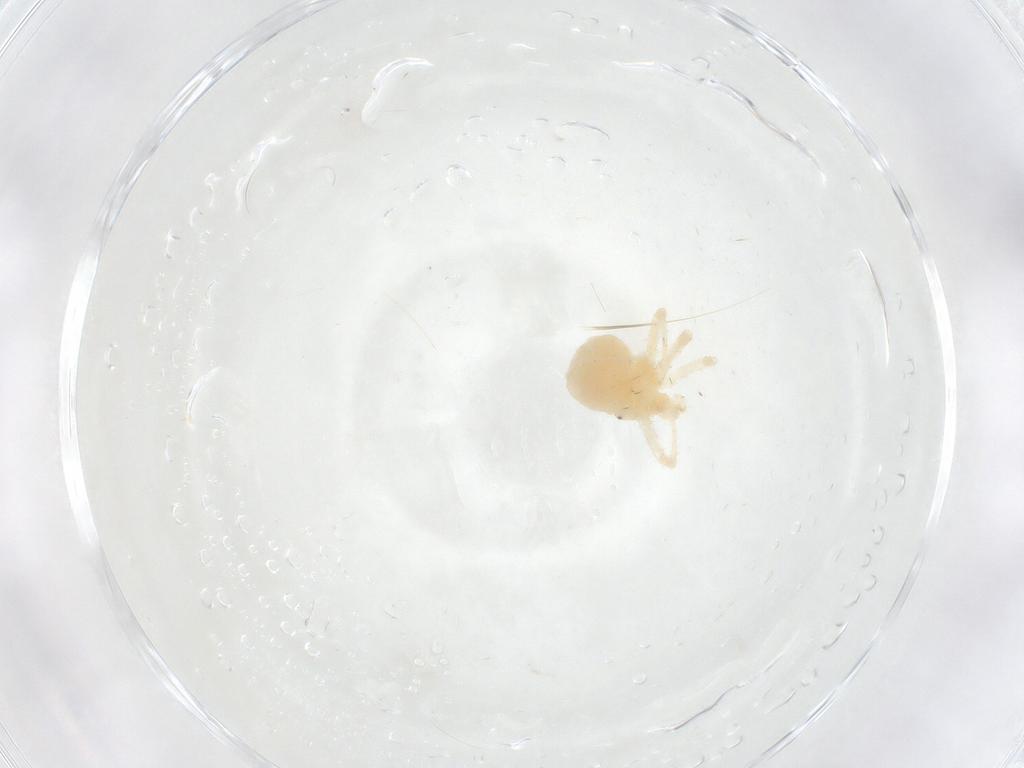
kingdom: Animalia
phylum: Arthropoda
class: Arachnida
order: Trombidiformes
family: Anystidae
